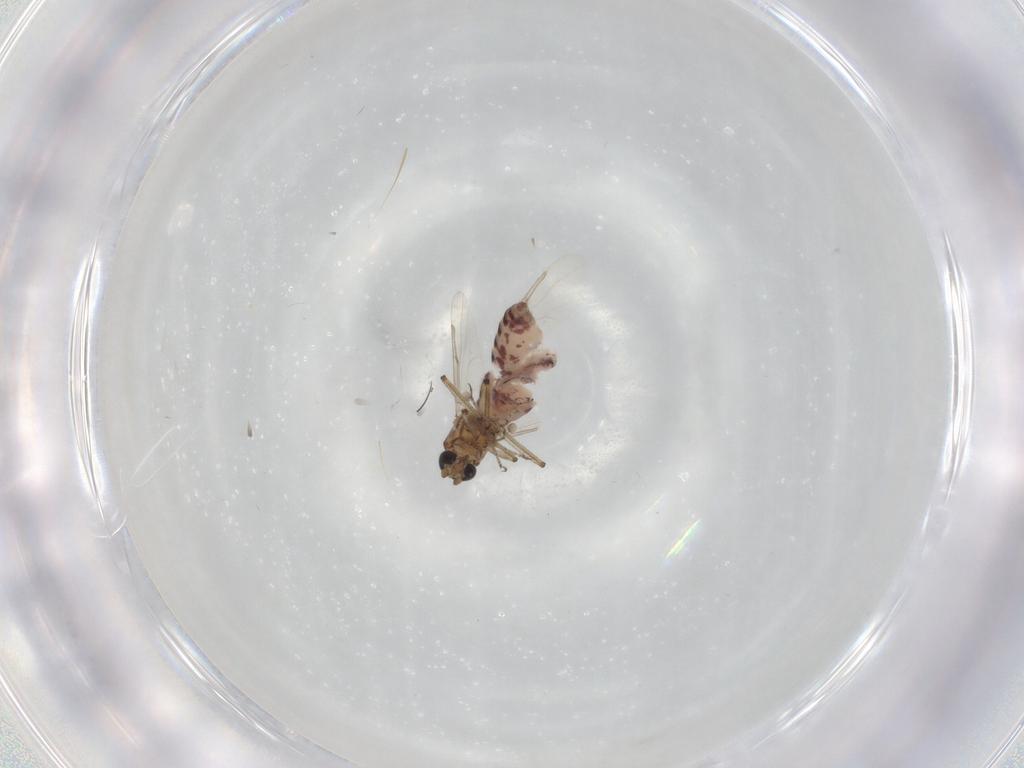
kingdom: Animalia
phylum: Arthropoda
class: Insecta
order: Diptera
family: Ceratopogonidae
